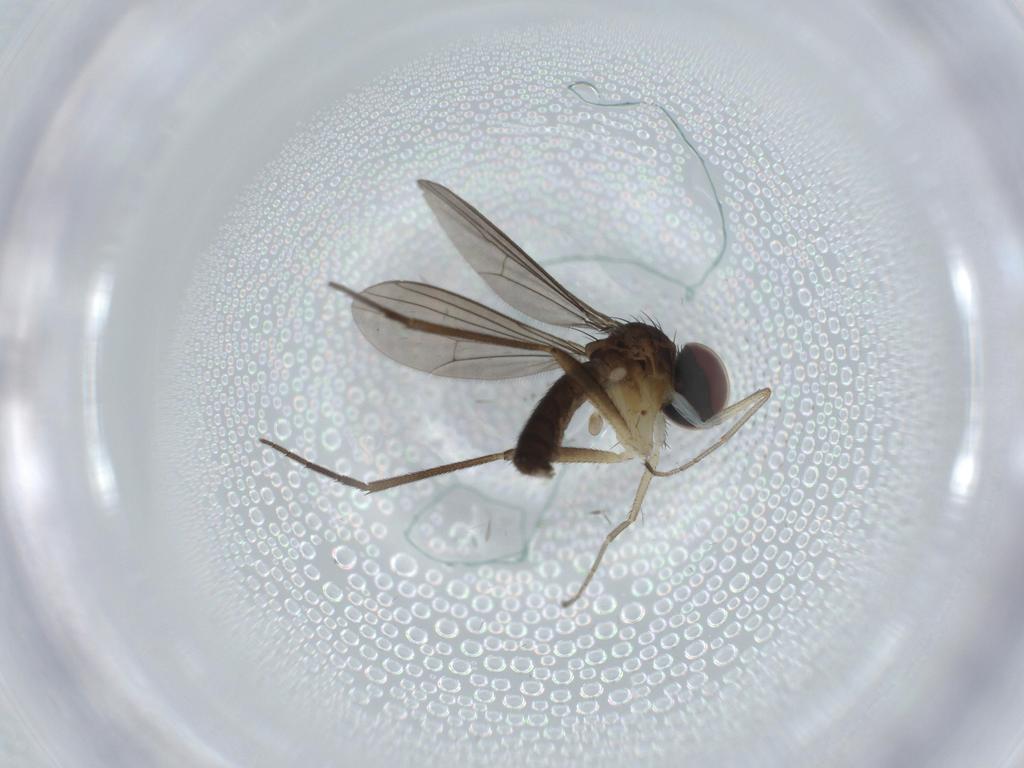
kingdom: Animalia
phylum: Arthropoda
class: Insecta
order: Diptera
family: Dolichopodidae
